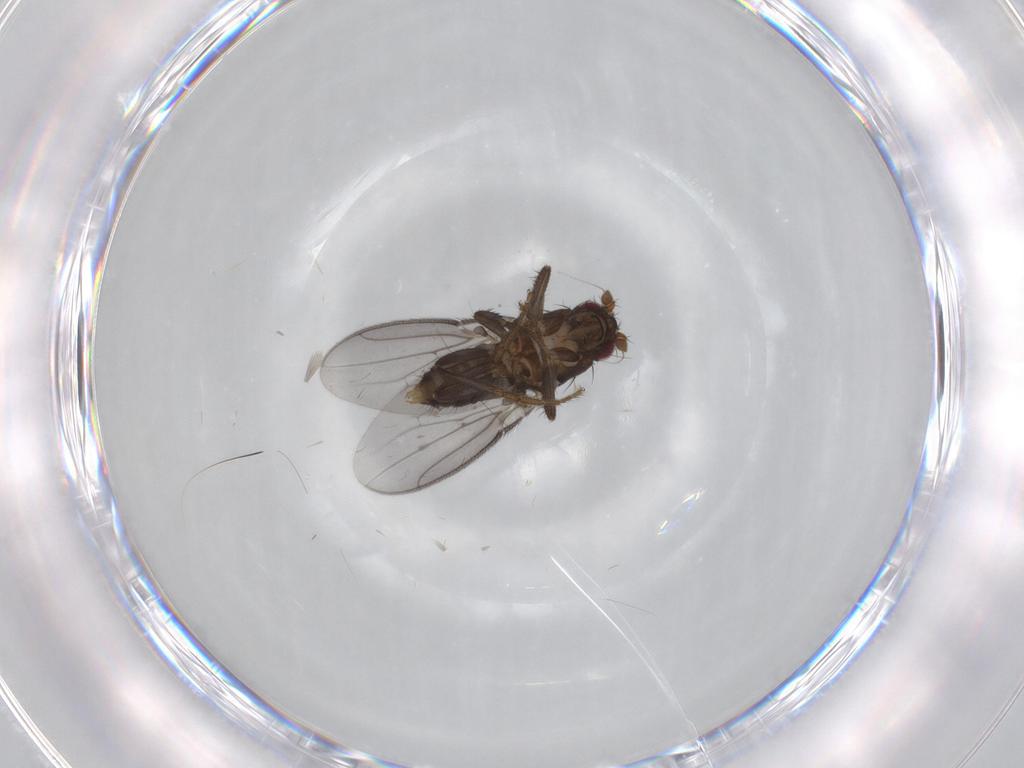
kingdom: Animalia
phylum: Arthropoda
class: Insecta
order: Diptera
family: Sphaeroceridae
